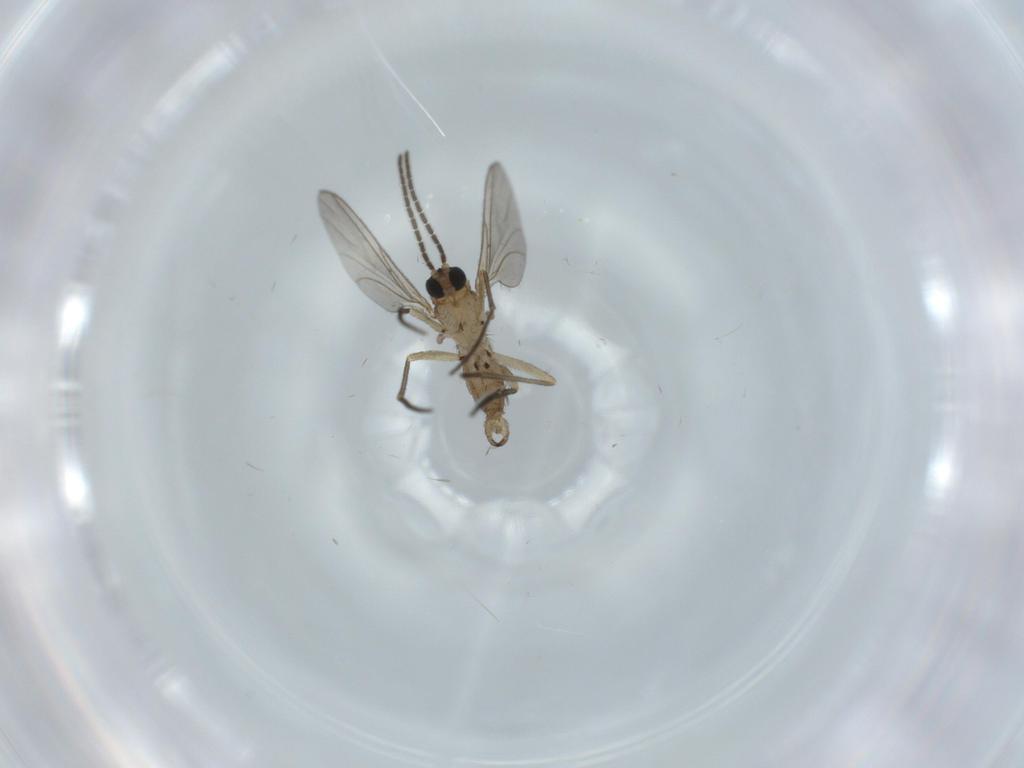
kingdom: Animalia
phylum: Arthropoda
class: Insecta
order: Diptera
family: Sciaridae
